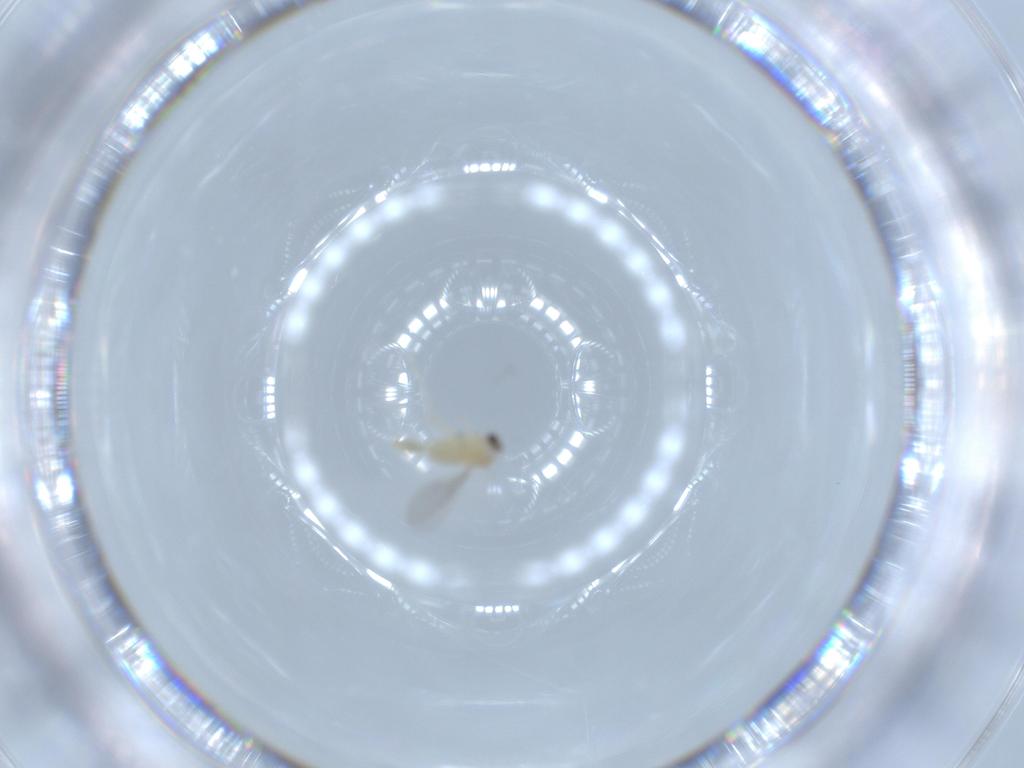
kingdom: Animalia
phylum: Arthropoda
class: Insecta
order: Diptera
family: Cecidomyiidae
